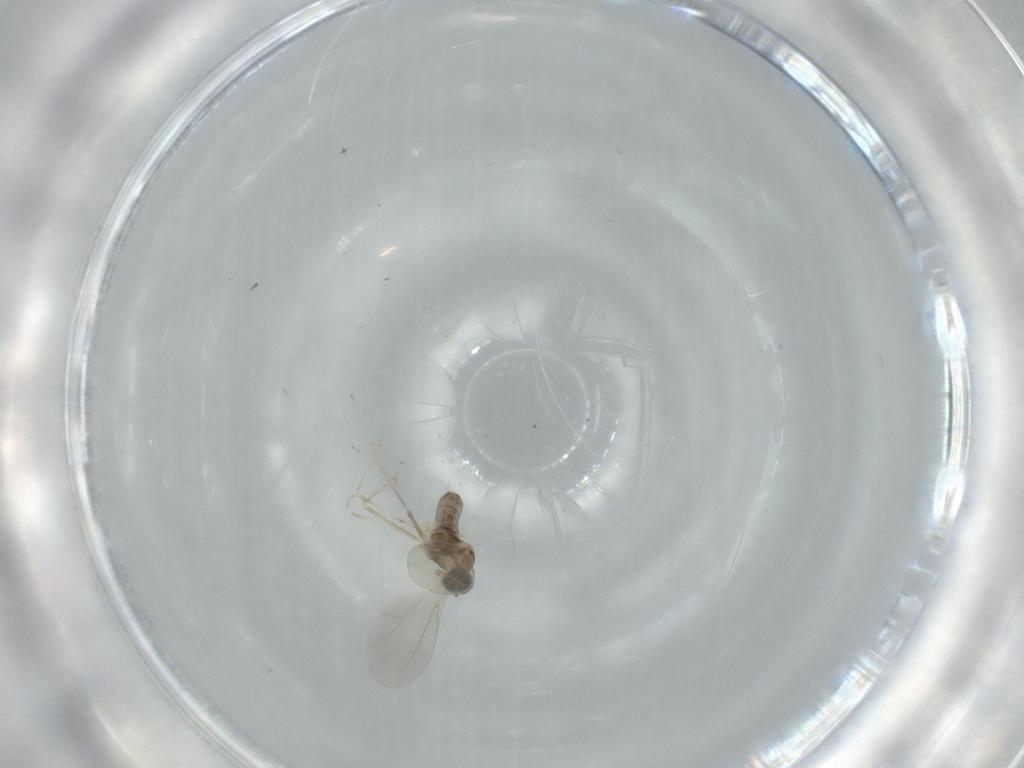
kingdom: Animalia
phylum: Arthropoda
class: Insecta
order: Diptera
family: Cecidomyiidae
